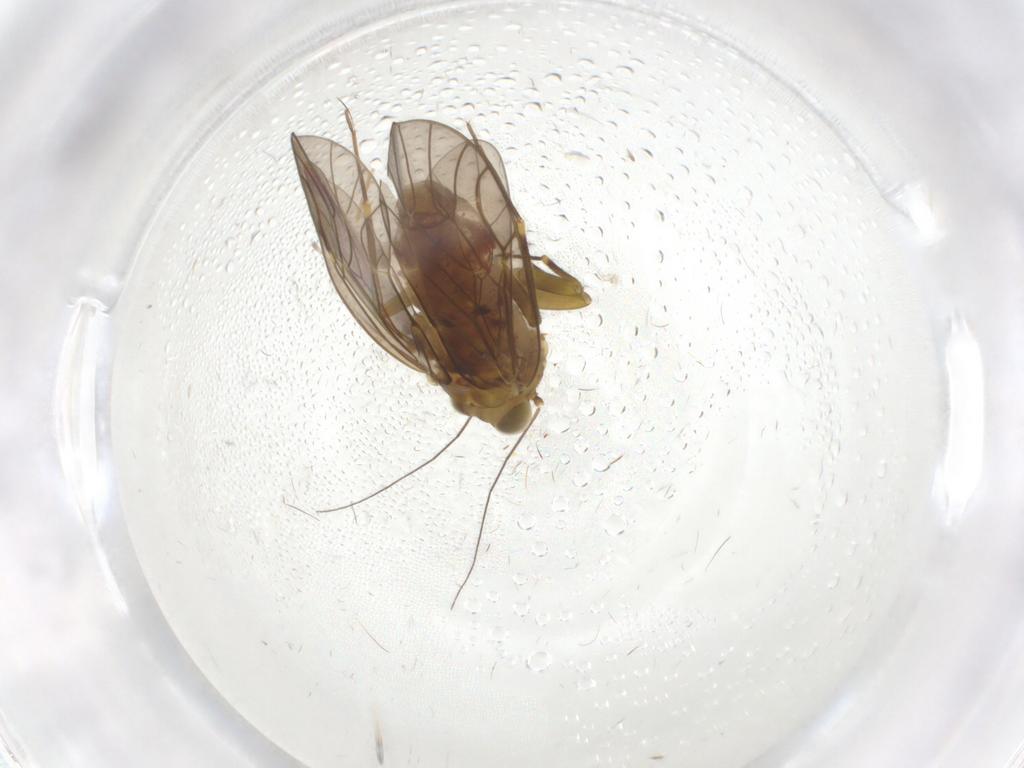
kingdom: Animalia
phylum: Arthropoda
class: Insecta
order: Psocodea
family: Philotarsidae
